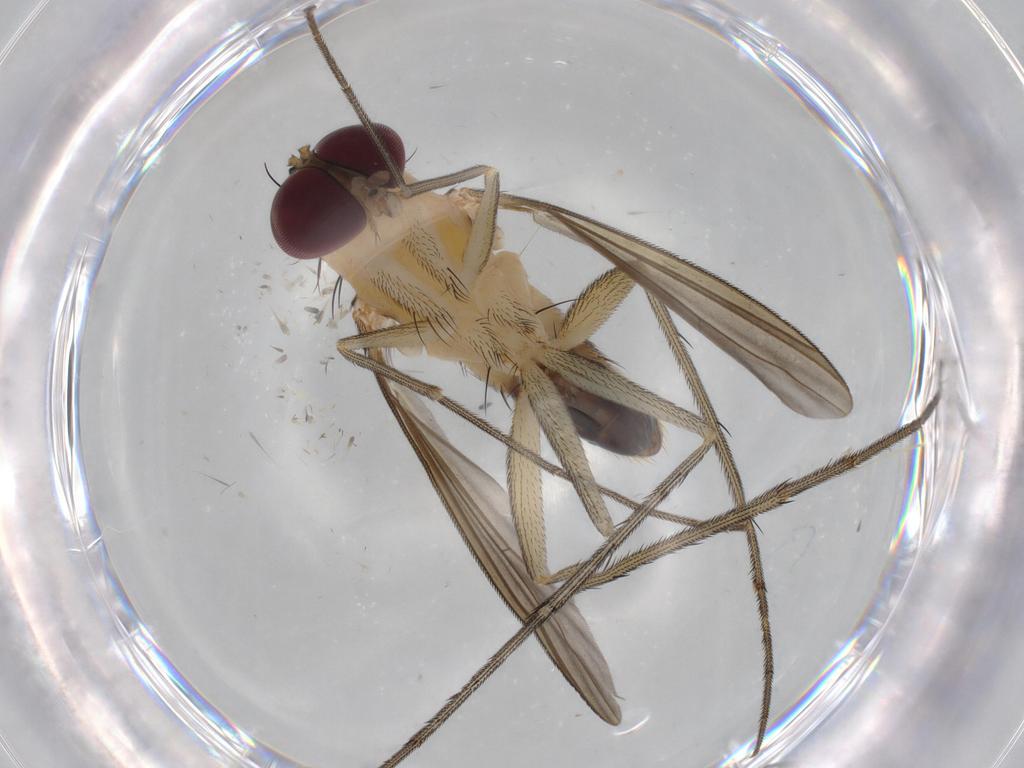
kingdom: Animalia
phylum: Arthropoda
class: Insecta
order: Diptera
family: Dolichopodidae
